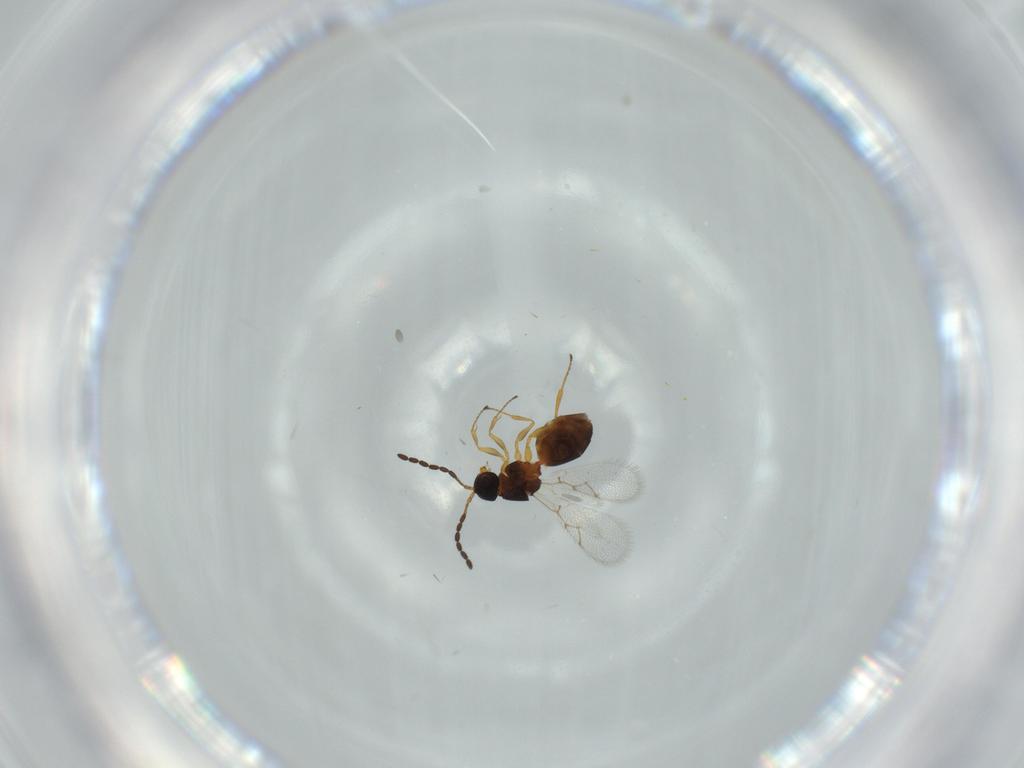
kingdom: Animalia
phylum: Arthropoda
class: Insecta
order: Hymenoptera
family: Figitidae
